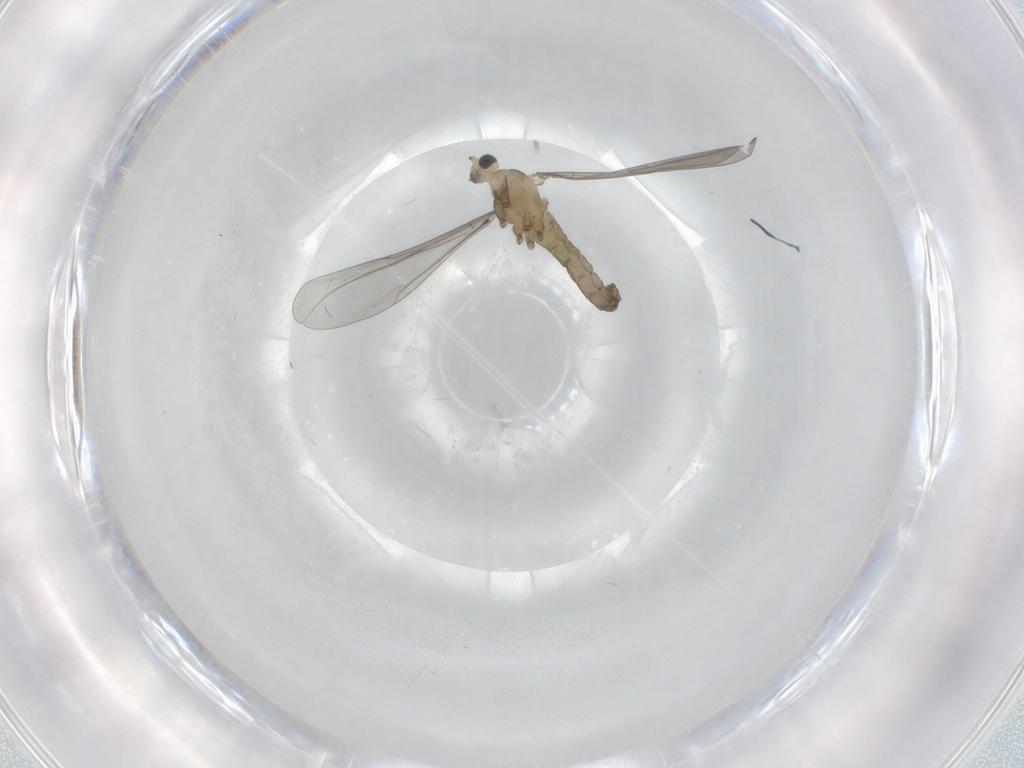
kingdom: Animalia
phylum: Arthropoda
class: Insecta
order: Diptera
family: Cecidomyiidae
